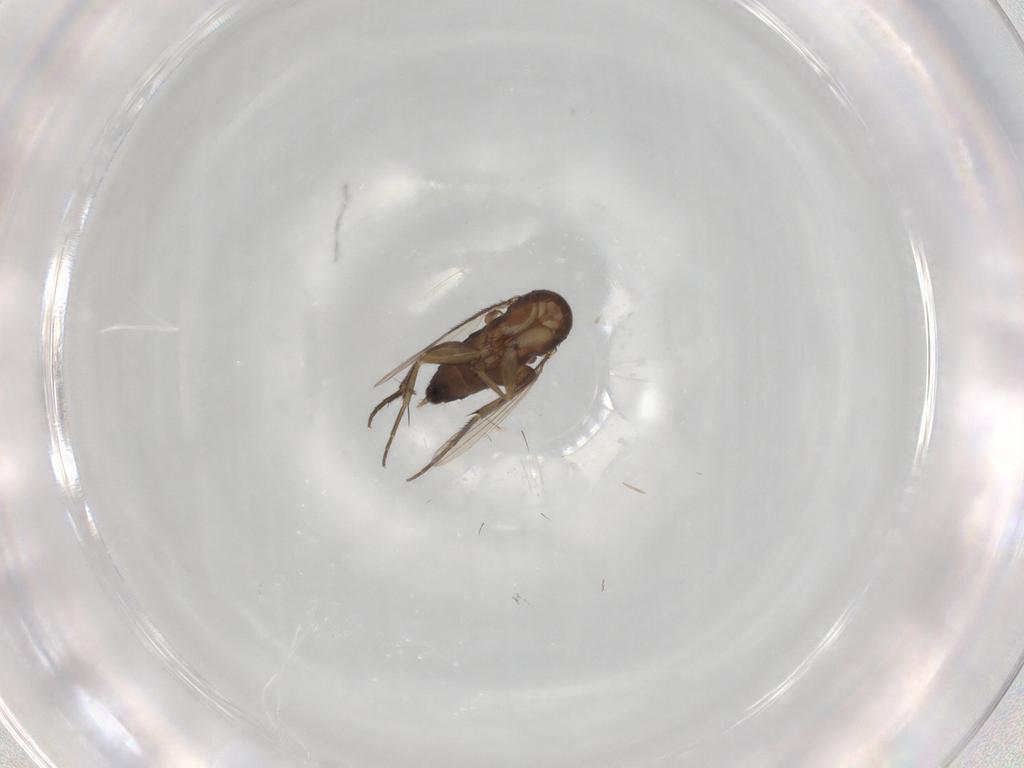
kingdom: Animalia
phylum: Arthropoda
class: Insecta
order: Diptera
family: Phoridae
